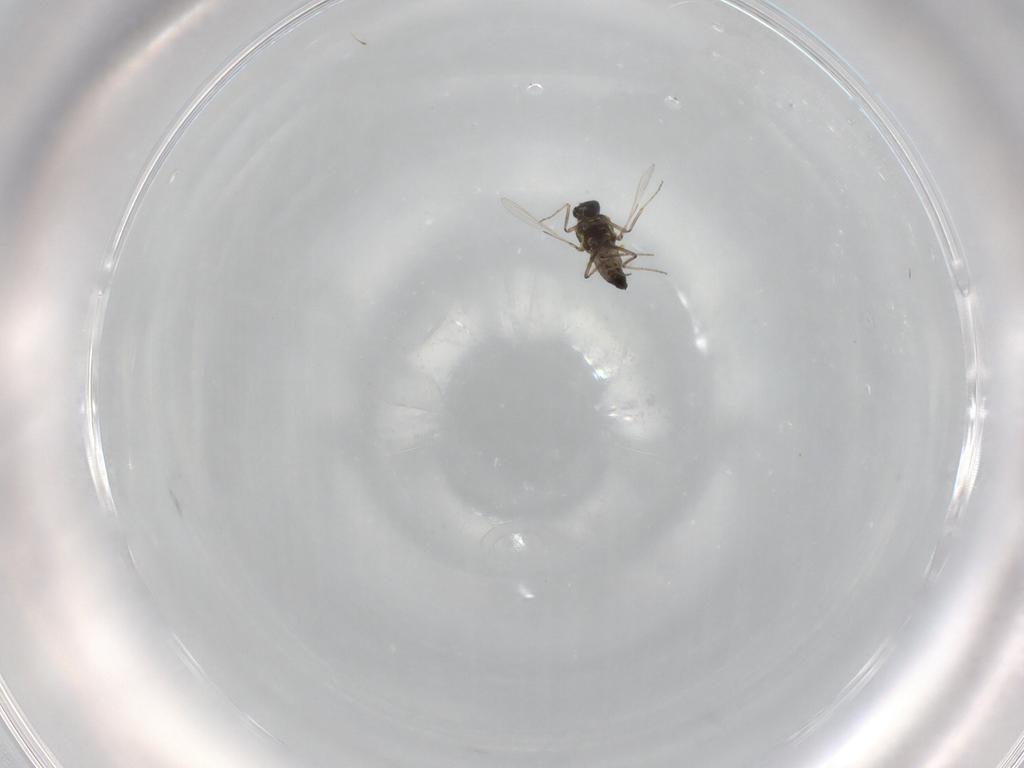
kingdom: Animalia
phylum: Arthropoda
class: Insecta
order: Diptera
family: Ceratopogonidae
